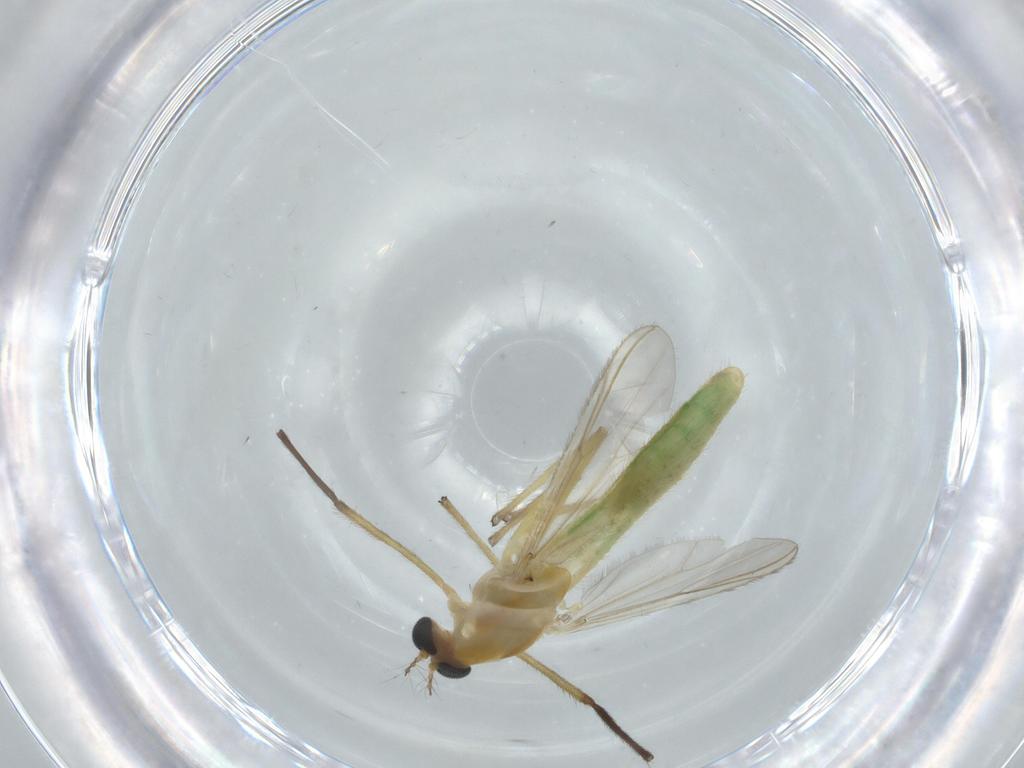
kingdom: Animalia
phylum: Arthropoda
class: Insecta
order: Diptera
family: Chironomidae
